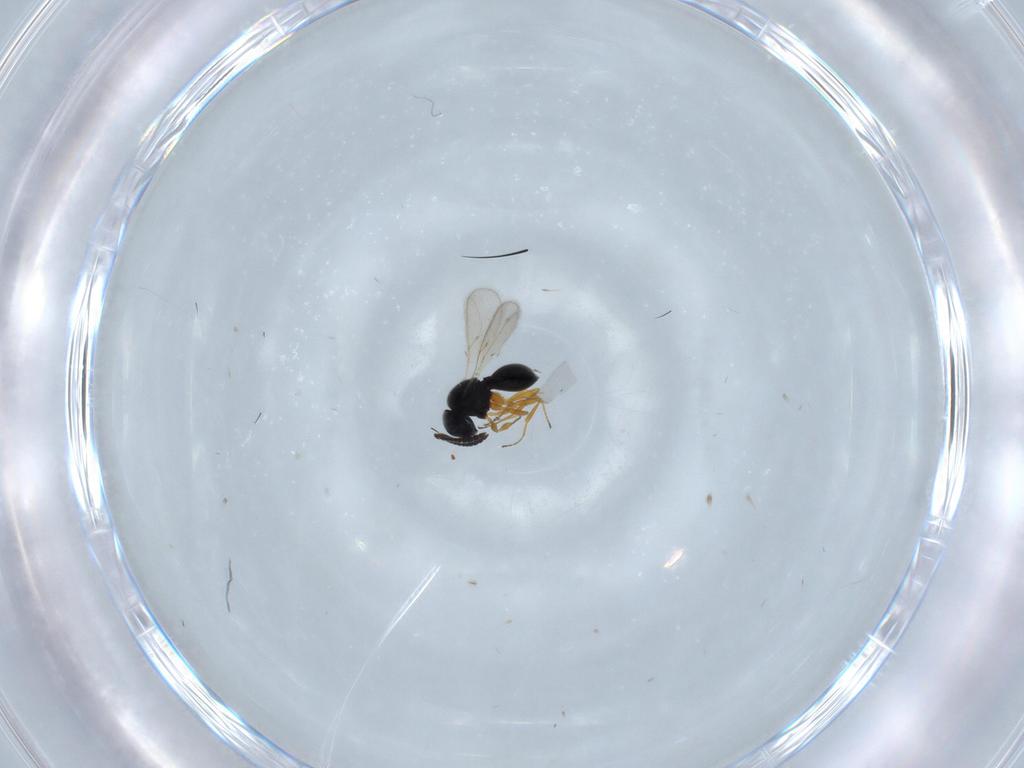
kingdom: Animalia
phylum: Arthropoda
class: Insecta
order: Hymenoptera
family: Scelionidae
